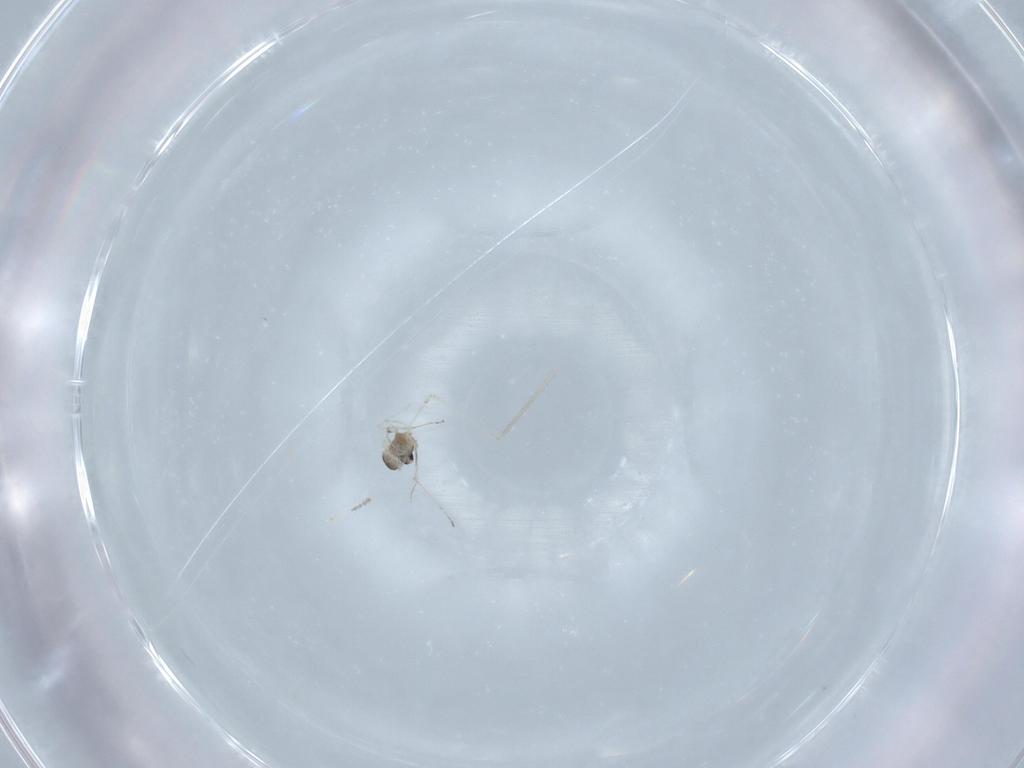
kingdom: Animalia
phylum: Arthropoda
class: Insecta
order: Diptera
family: Cecidomyiidae
